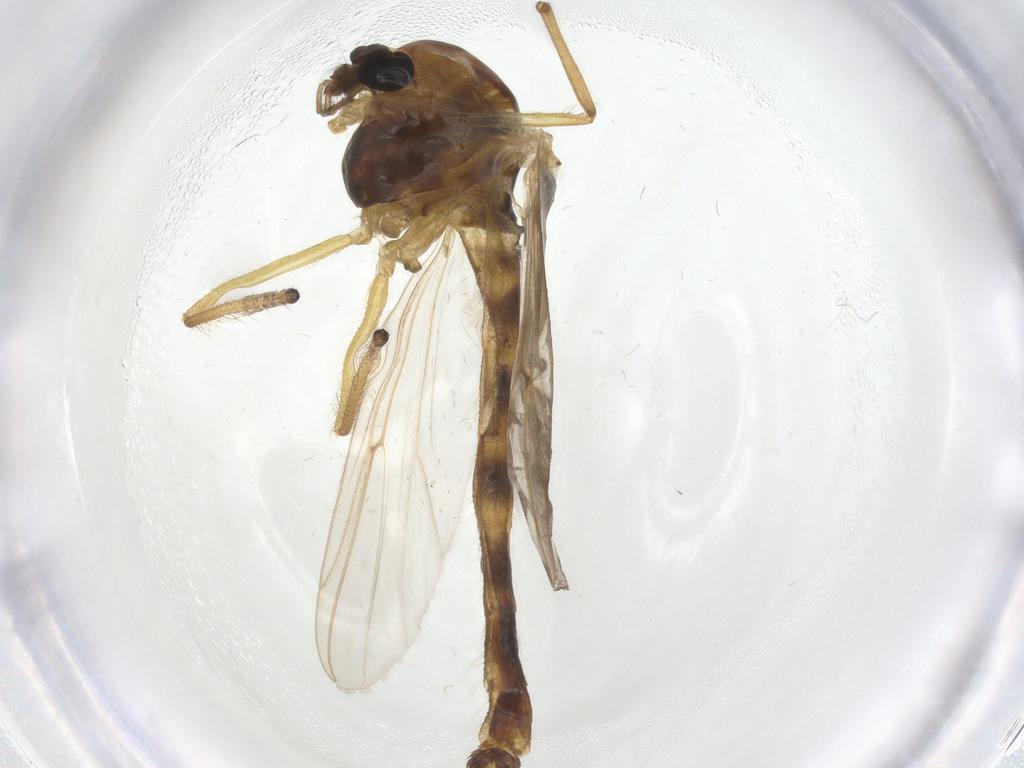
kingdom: Animalia
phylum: Arthropoda
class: Insecta
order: Diptera
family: Chironomidae
